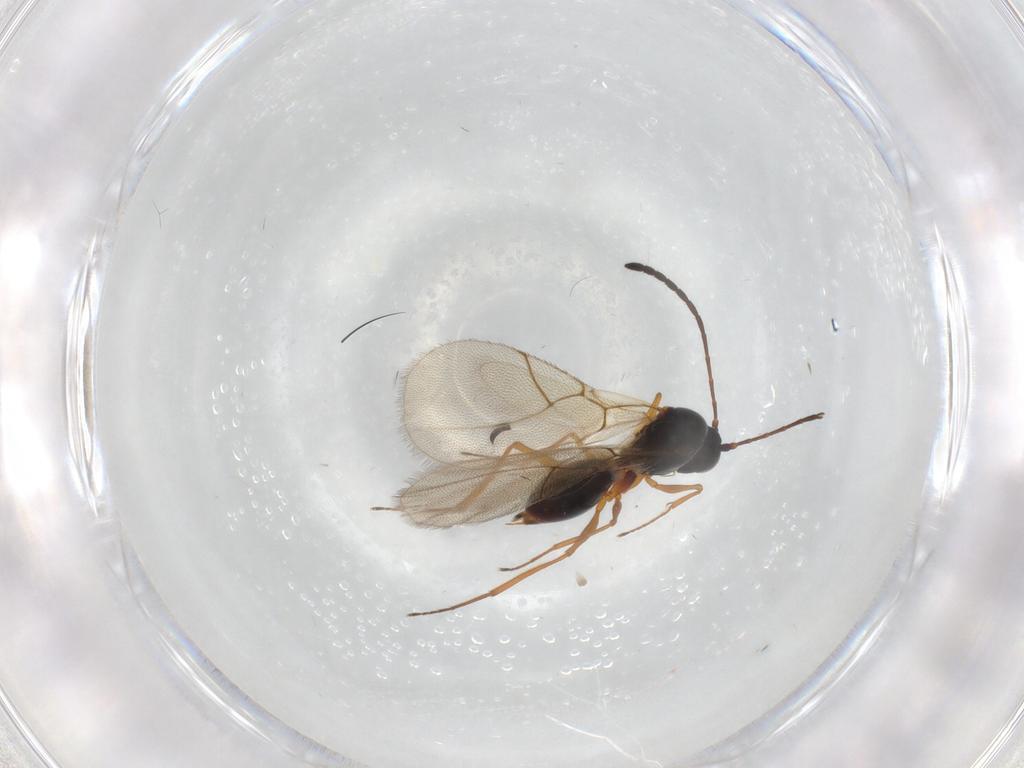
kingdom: Animalia
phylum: Arthropoda
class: Insecta
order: Hymenoptera
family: Figitidae
